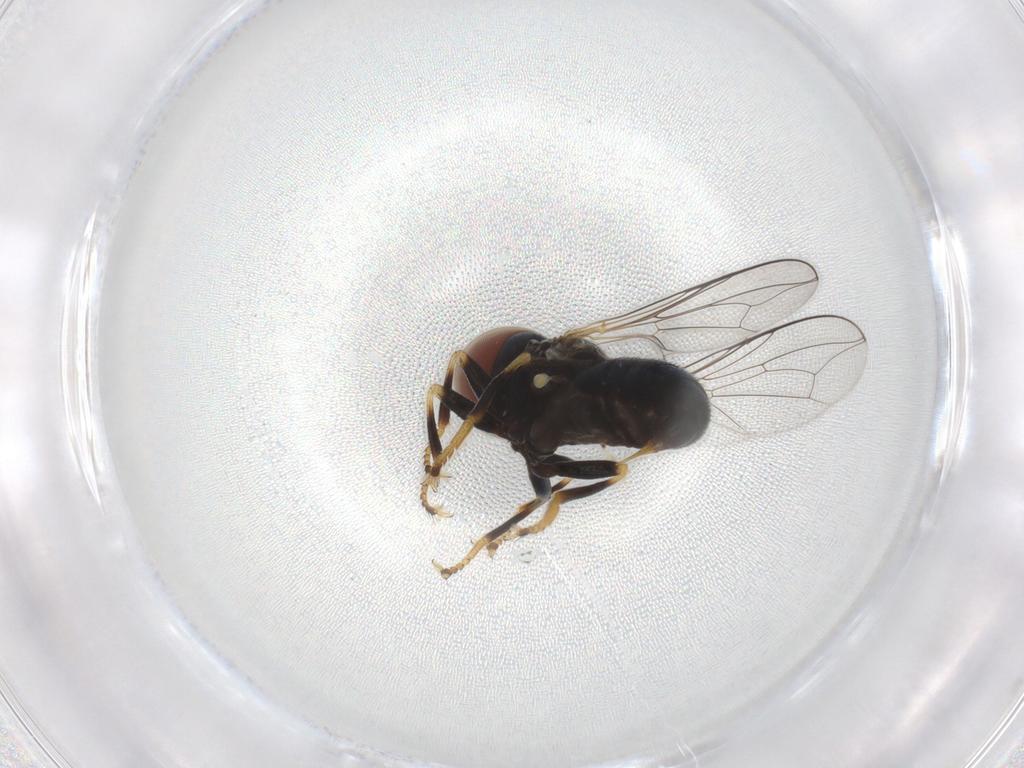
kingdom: Animalia
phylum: Arthropoda
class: Insecta
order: Diptera
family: Pipunculidae
